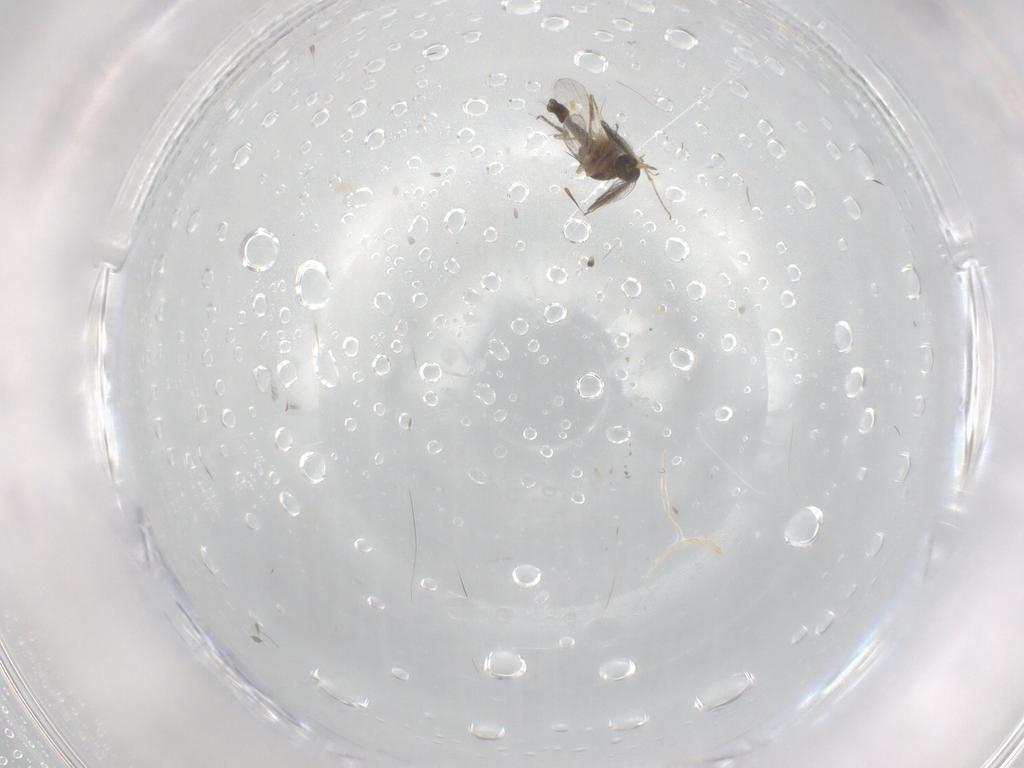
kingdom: Animalia
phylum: Arthropoda
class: Insecta
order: Diptera
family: Ceratopogonidae
